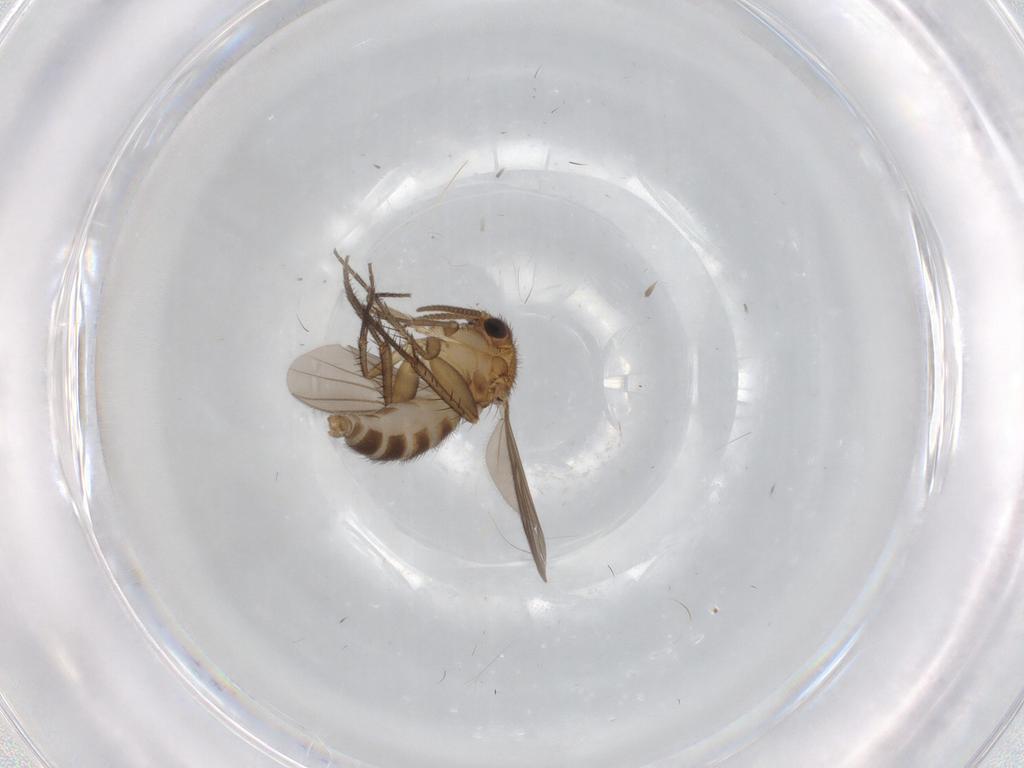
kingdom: Animalia
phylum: Arthropoda
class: Insecta
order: Diptera
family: Mycetophilidae
